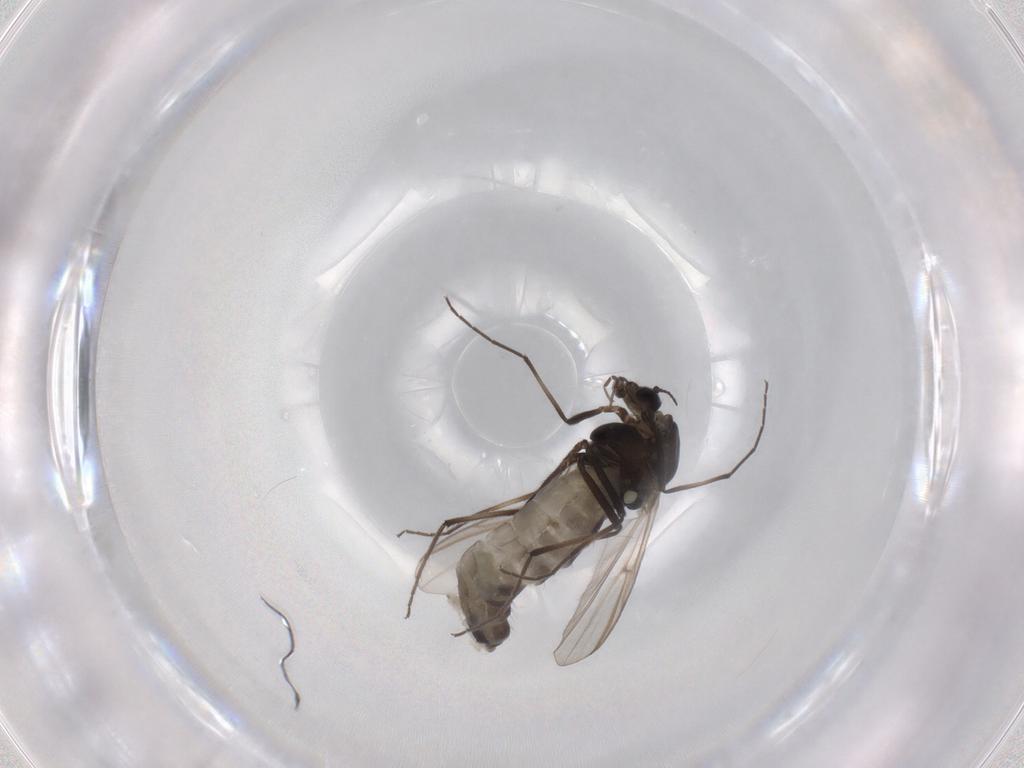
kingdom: Animalia
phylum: Arthropoda
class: Insecta
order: Diptera
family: Chironomidae
